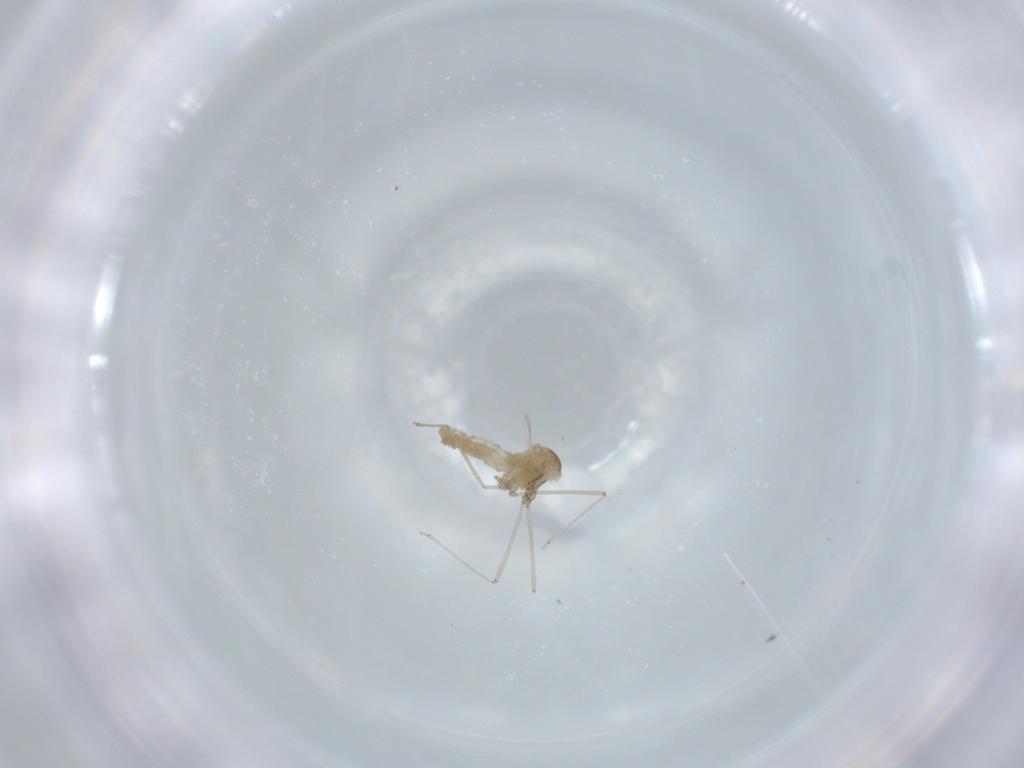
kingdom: Animalia
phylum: Arthropoda
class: Insecta
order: Diptera
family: Cecidomyiidae
